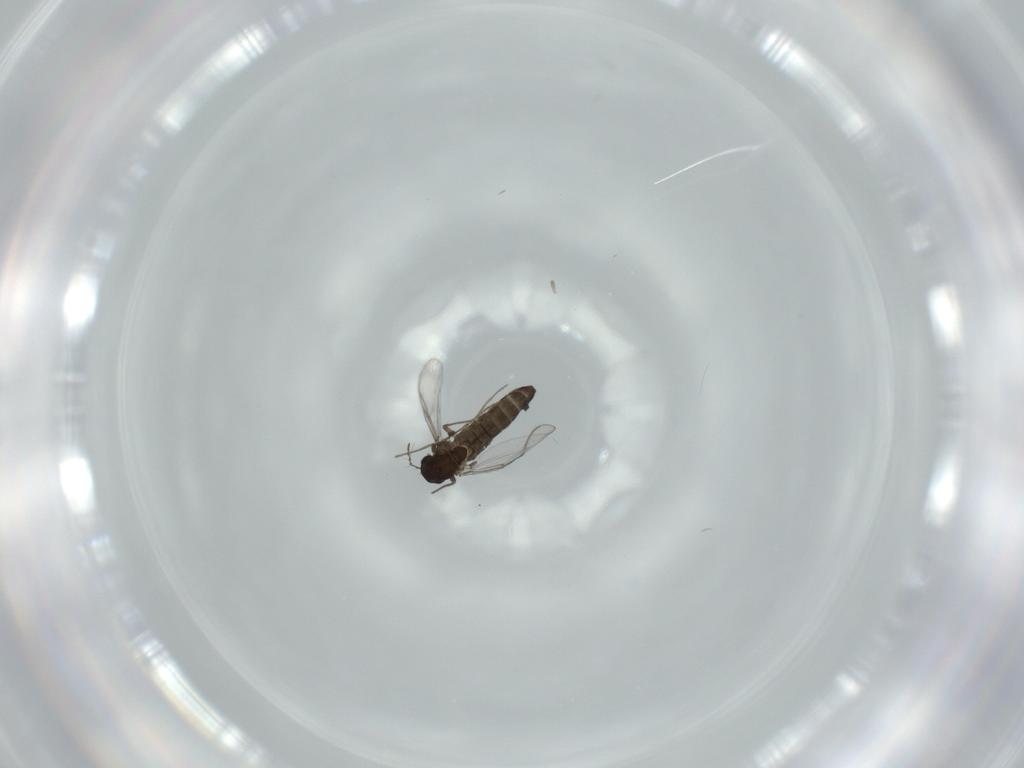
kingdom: Animalia
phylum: Arthropoda
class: Insecta
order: Diptera
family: Chironomidae
